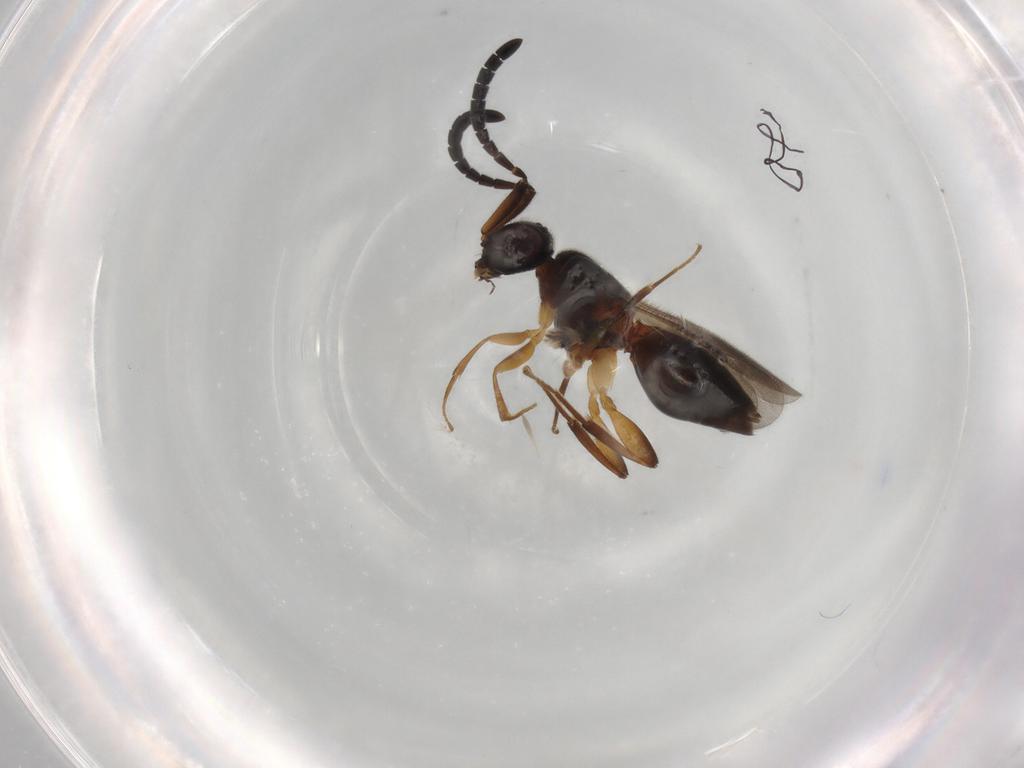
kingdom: Animalia
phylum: Arthropoda
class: Insecta
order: Hymenoptera
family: Megaspilidae
